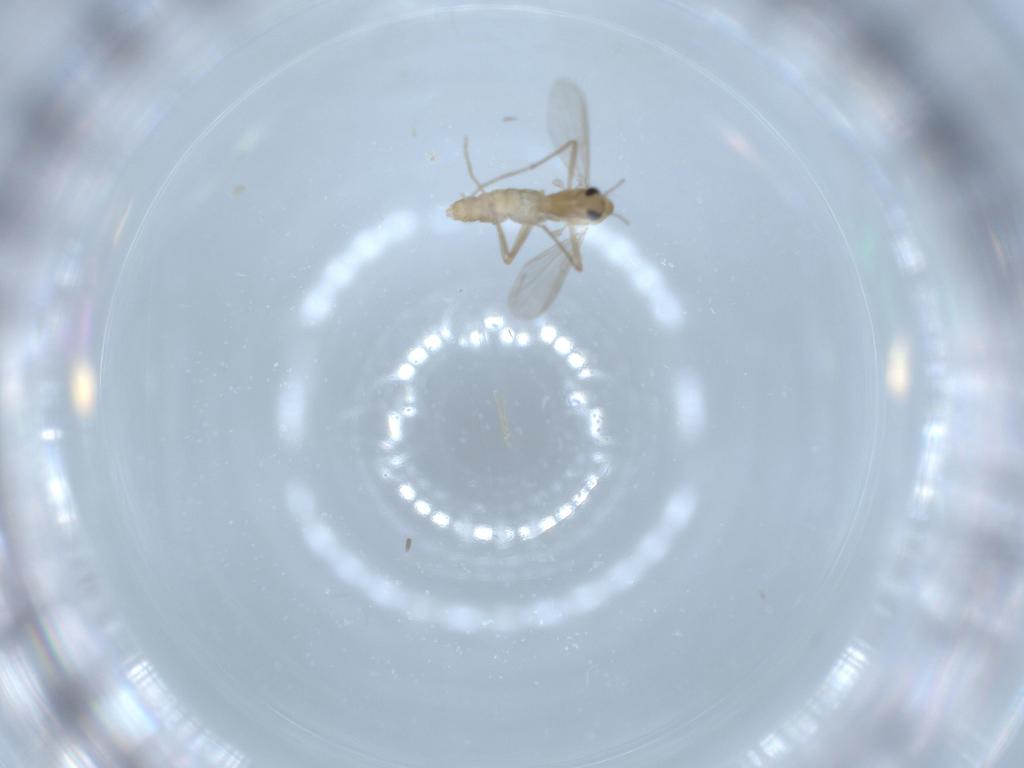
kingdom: Animalia
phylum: Arthropoda
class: Insecta
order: Diptera
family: Chironomidae
